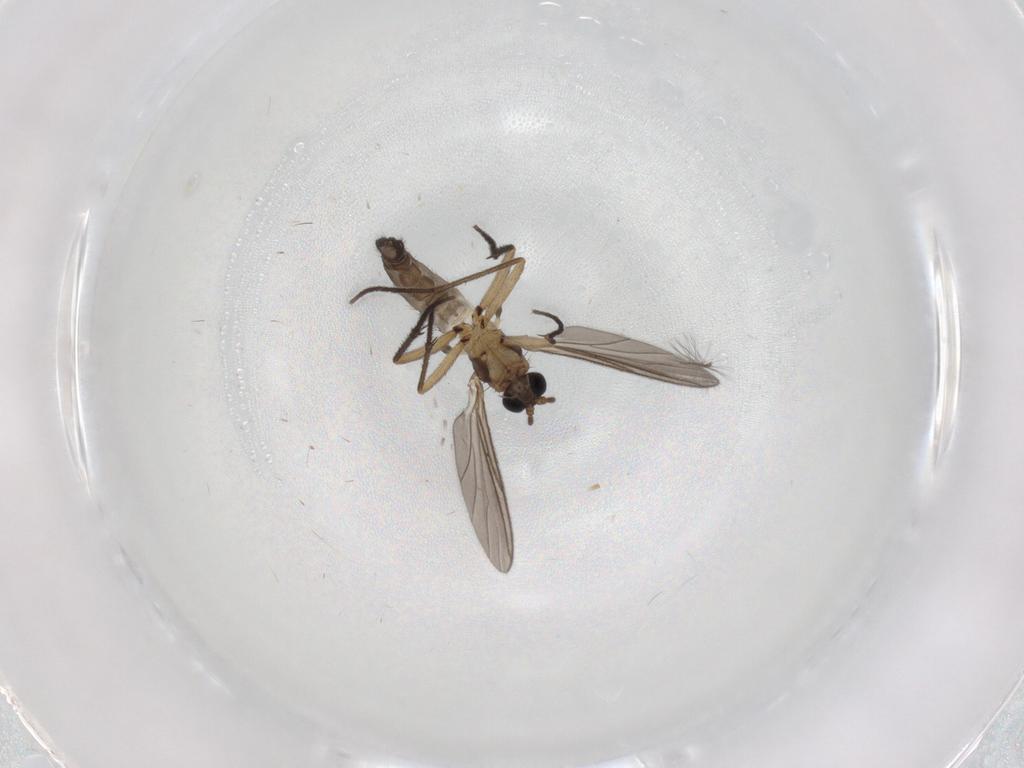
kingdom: Animalia
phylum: Arthropoda
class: Insecta
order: Diptera
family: Sciaridae
